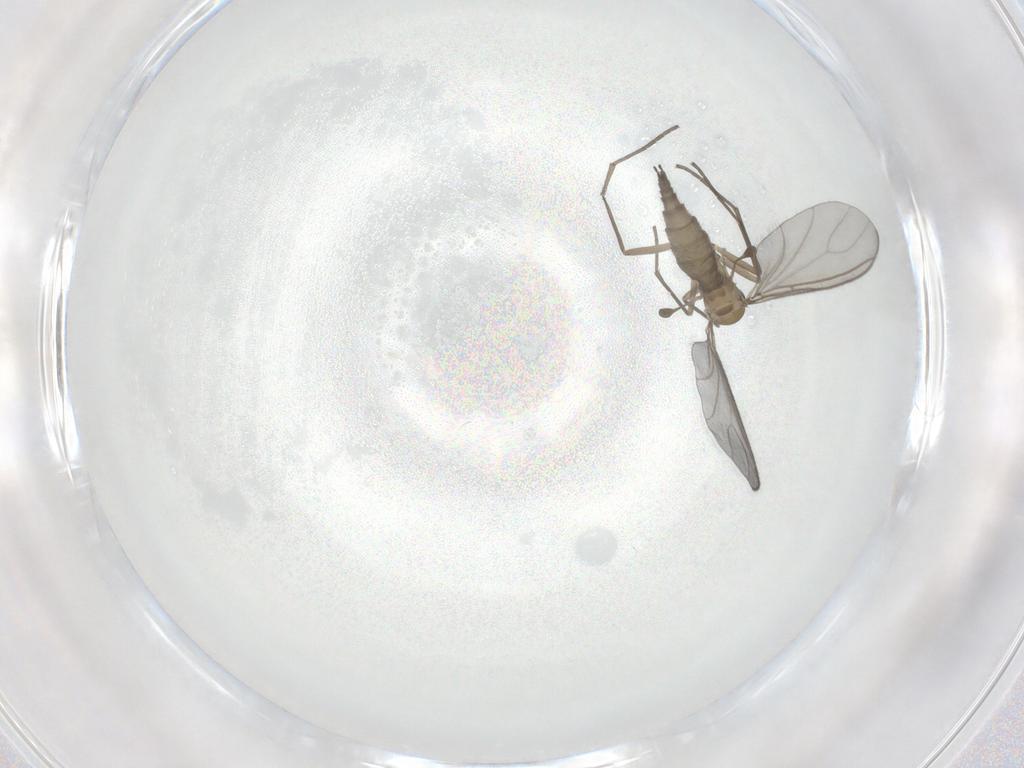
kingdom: Animalia
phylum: Arthropoda
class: Insecta
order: Diptera
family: Sciaridae
